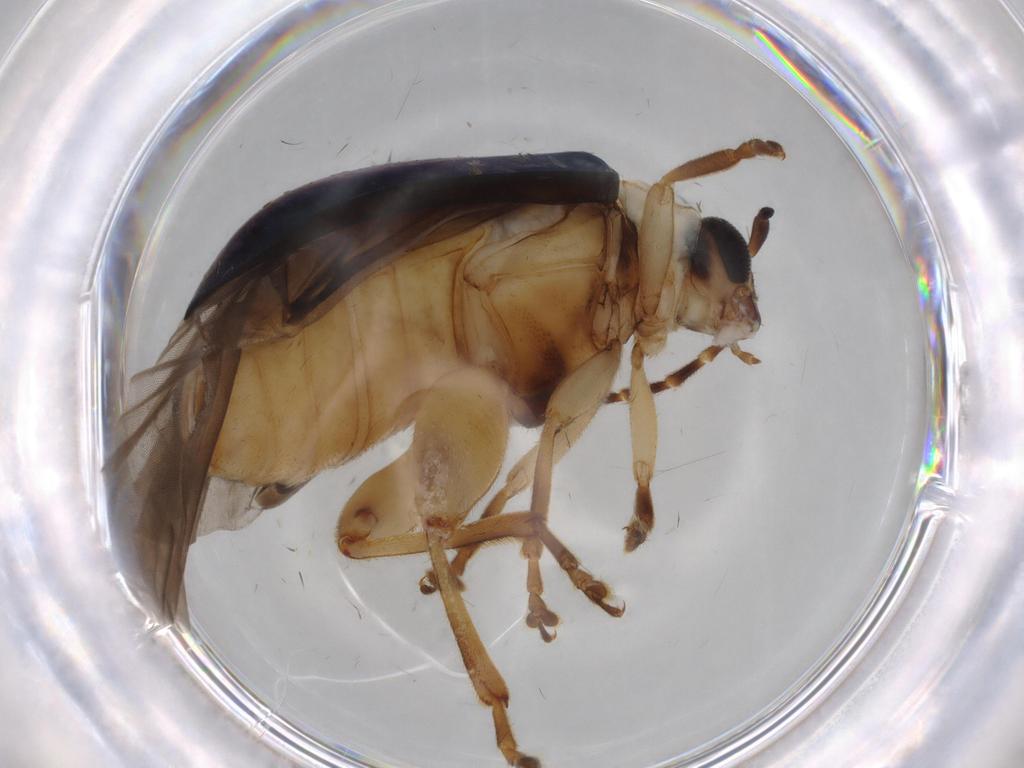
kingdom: Animalia
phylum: Arthropoda
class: Insecta
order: Coleoptera
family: Chrysomelidae
